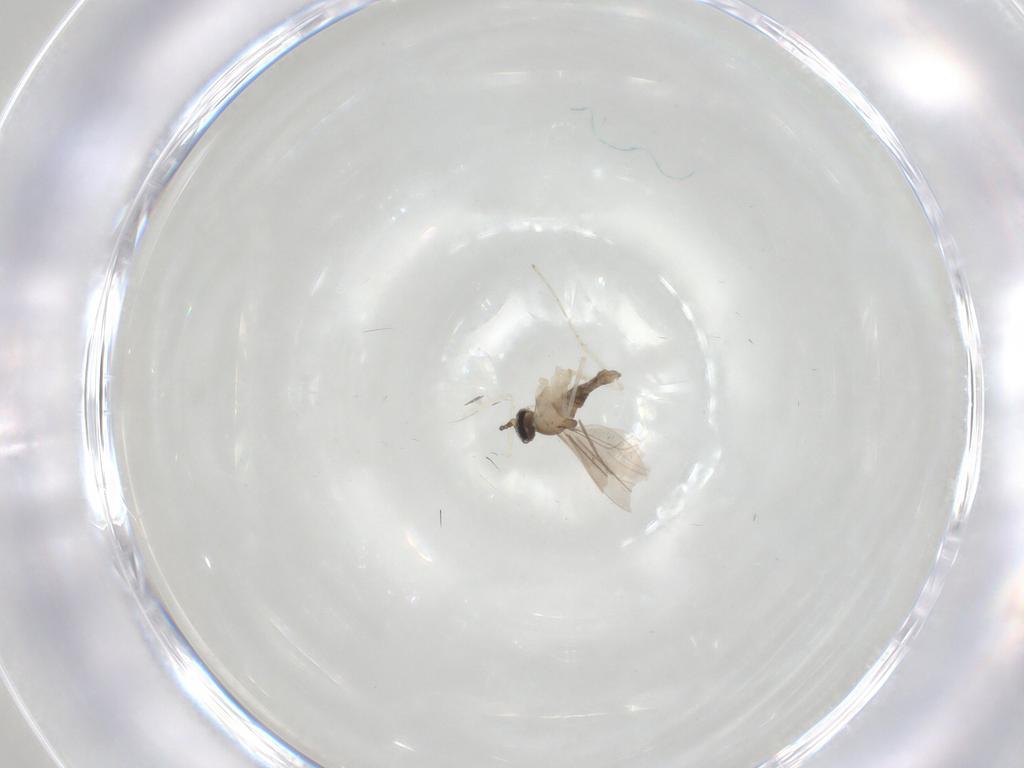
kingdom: Animalia
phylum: Arthropoda
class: Insecta
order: Diptera
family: Cecidomyiidae
